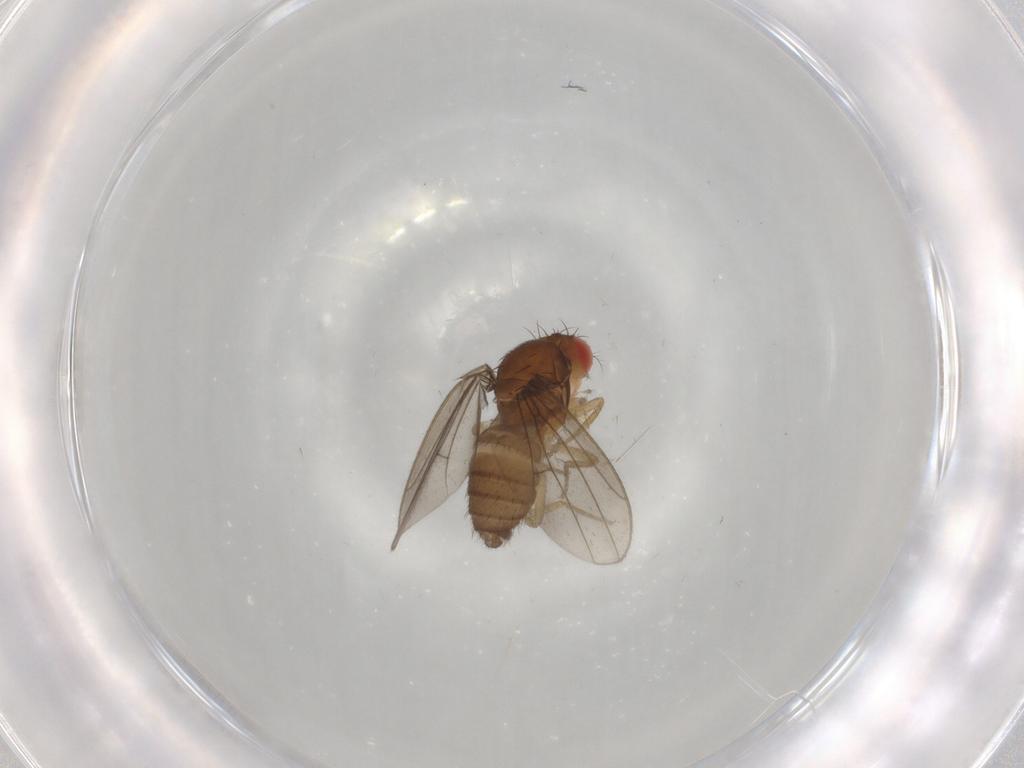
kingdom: Animalia
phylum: Arthropoda
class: Insecta
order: Diptera
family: Drosophilidae
